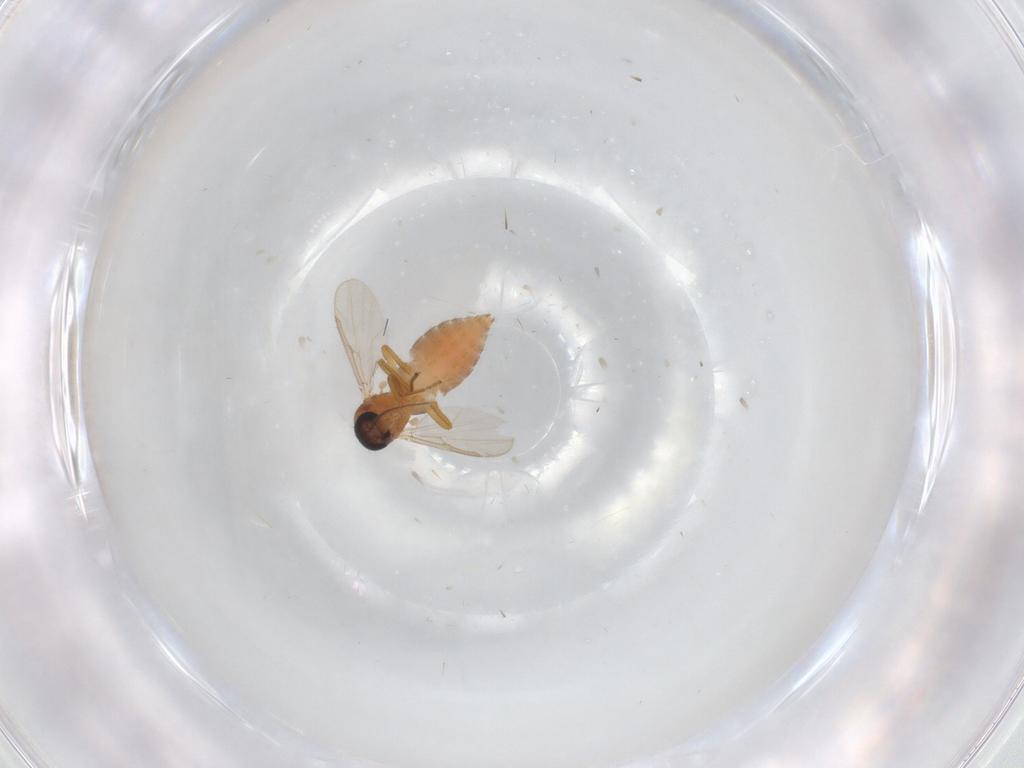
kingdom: Animalia
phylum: Arthropoda
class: Insecta
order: Diptera
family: Ceratopogonidae
